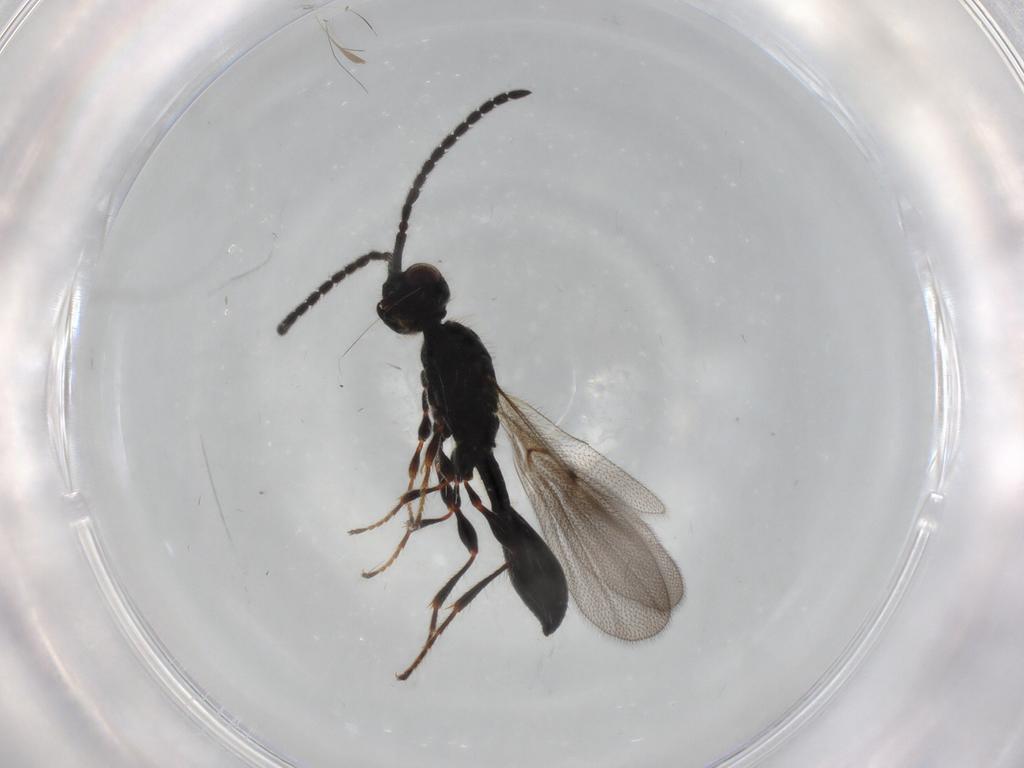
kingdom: Animalia
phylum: Arthropoda
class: Insecta
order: Hymenoptera
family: Diapriidae
